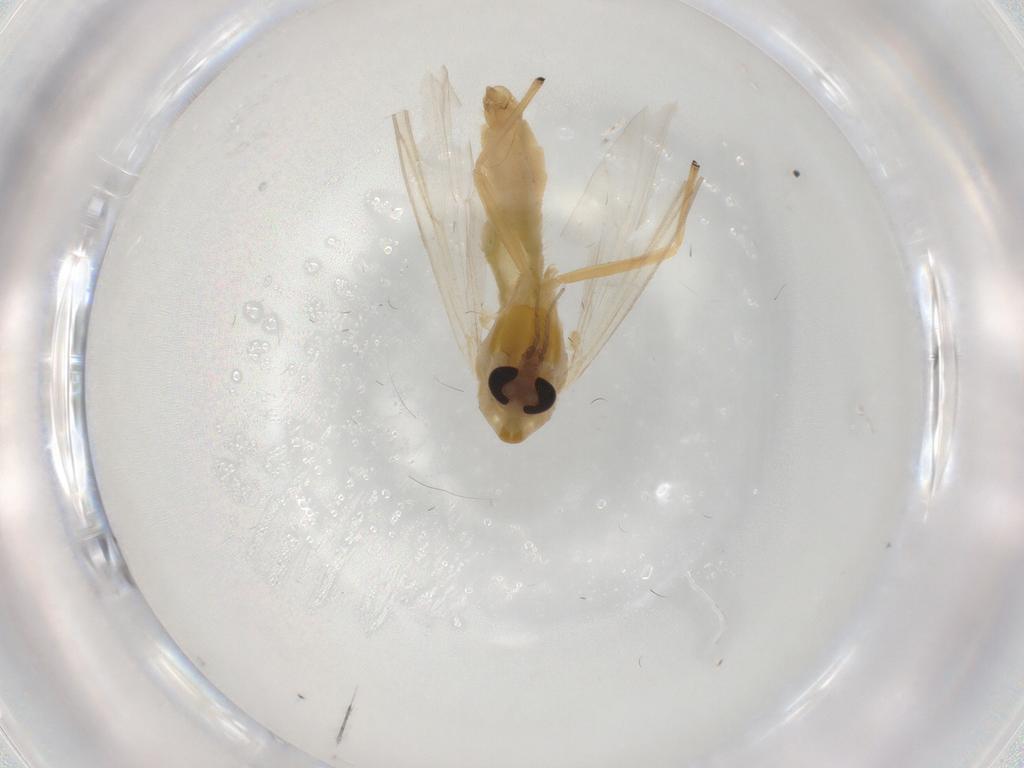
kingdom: Animalia
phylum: Arthropoda
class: Insecta
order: Diptera
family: Chironomidae
